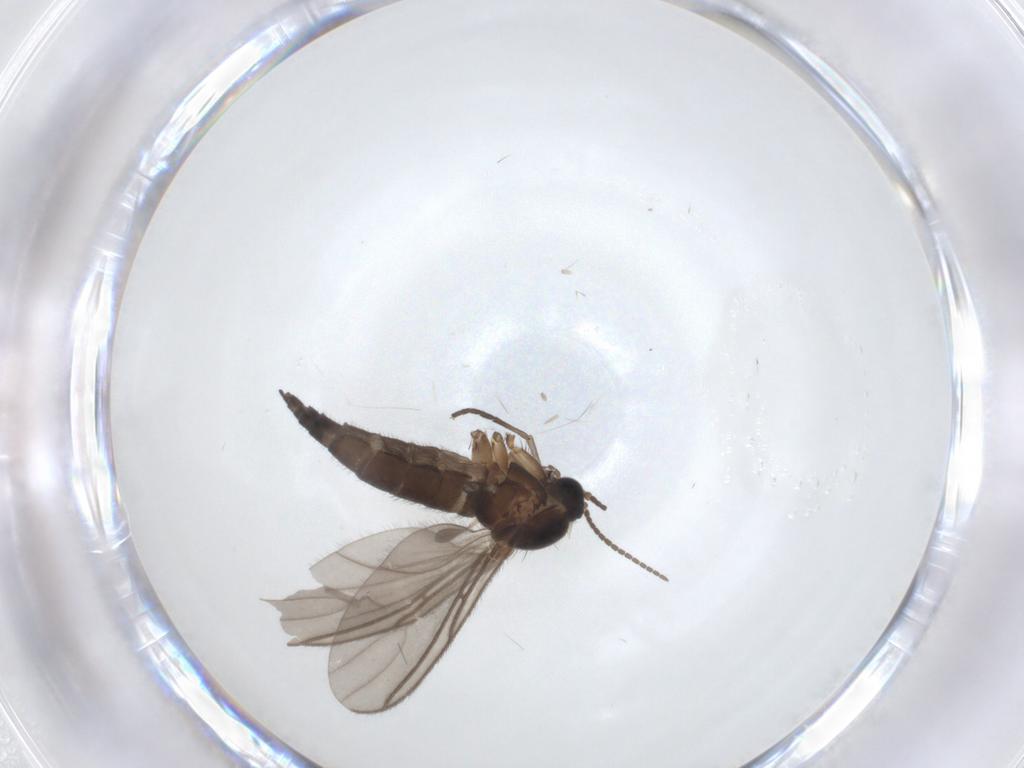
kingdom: Animalia
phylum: Arthropoda
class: Insecta
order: Diptera
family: Sciaridae
